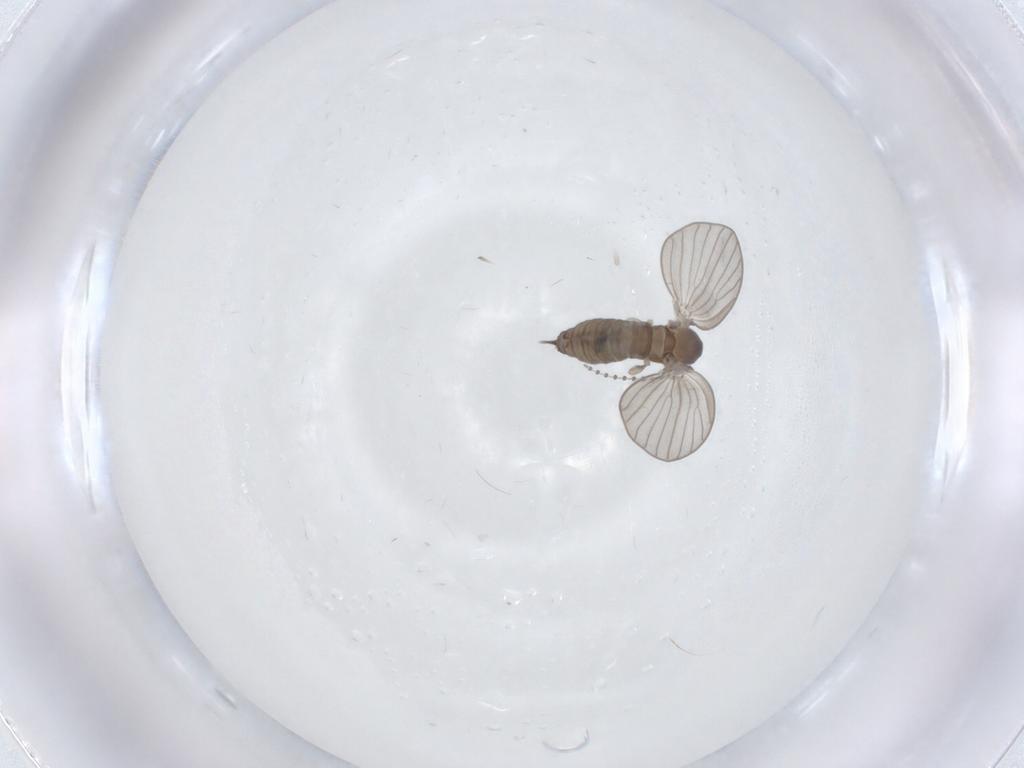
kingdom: Animalia
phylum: Arthropoda
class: Insecta
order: Diptera
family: Psychodidae
